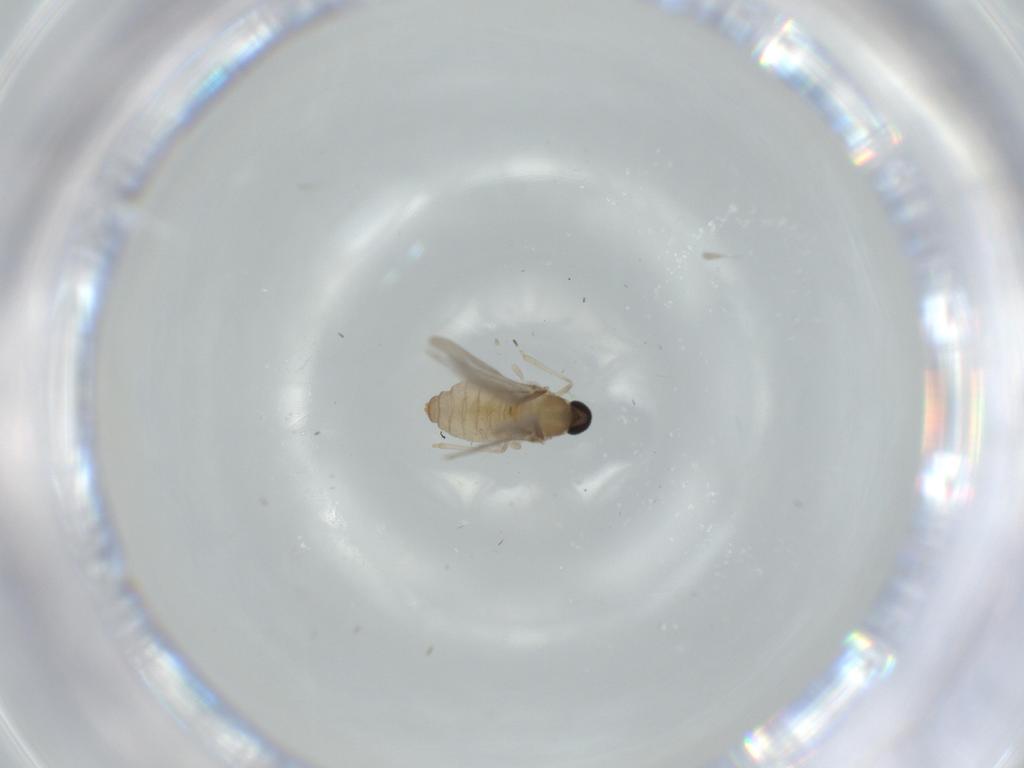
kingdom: Animalia
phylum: Arthropoda
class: Insecta
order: Diptera
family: Cecidomyiidae
